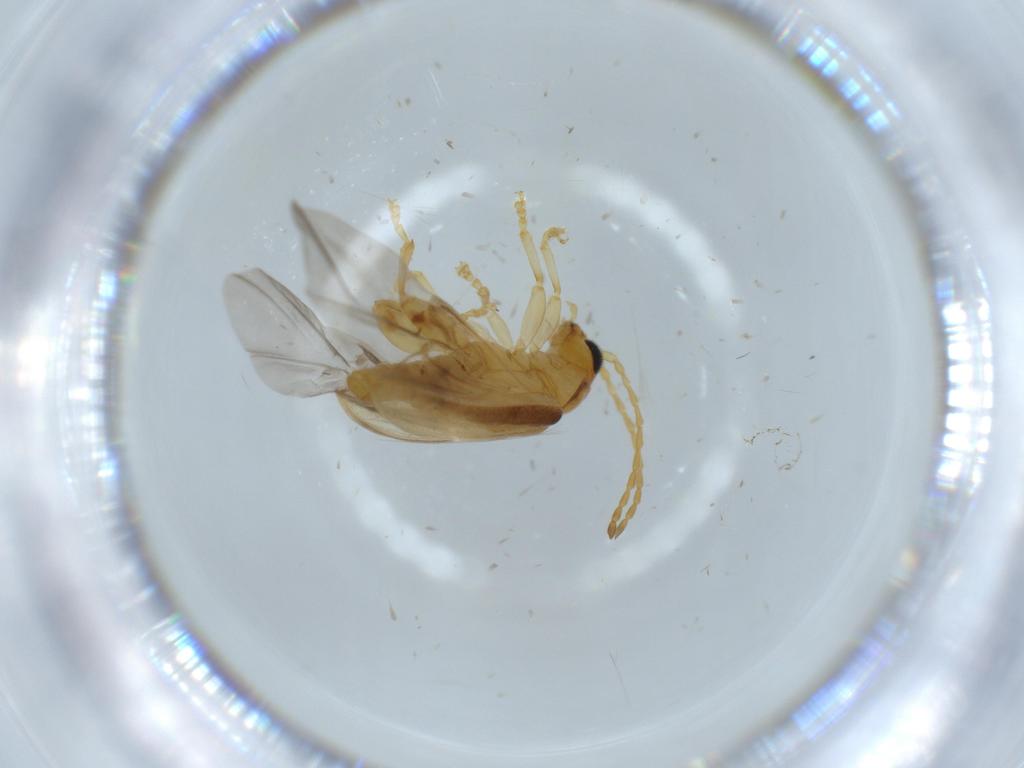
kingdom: Animalia
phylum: Arthropoda
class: Insecta
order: Coleoptera
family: Chrysomelidae
